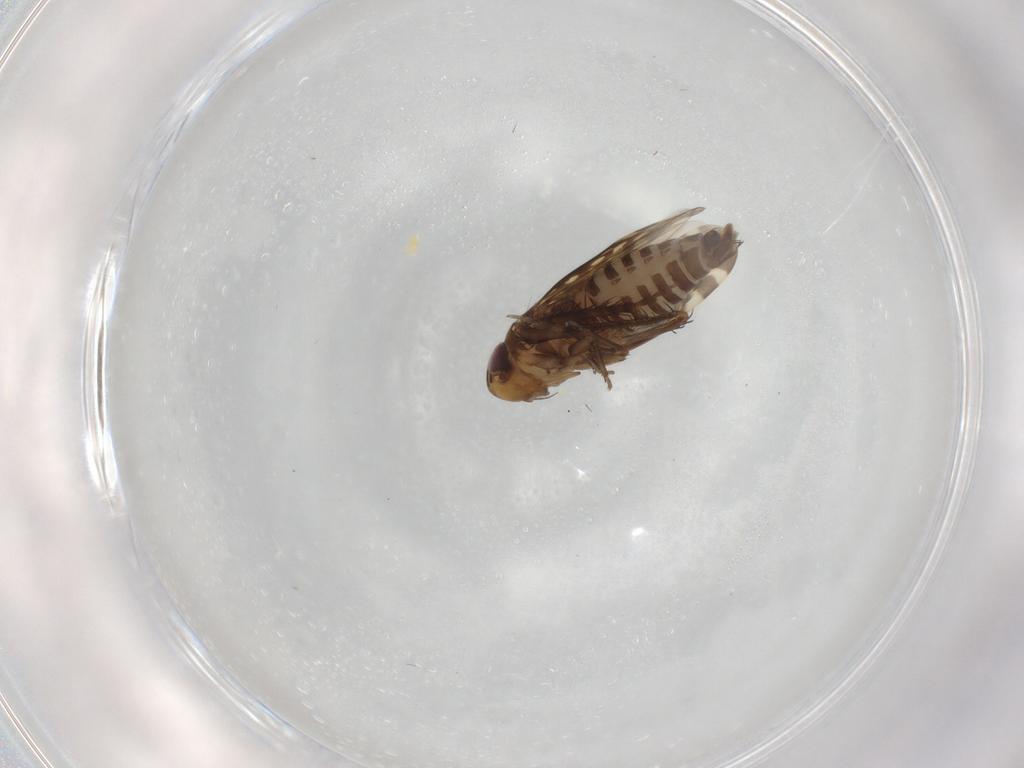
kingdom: Animalia
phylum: Arthropoda
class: Insecta
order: Hemiptera
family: Cicadellidae
